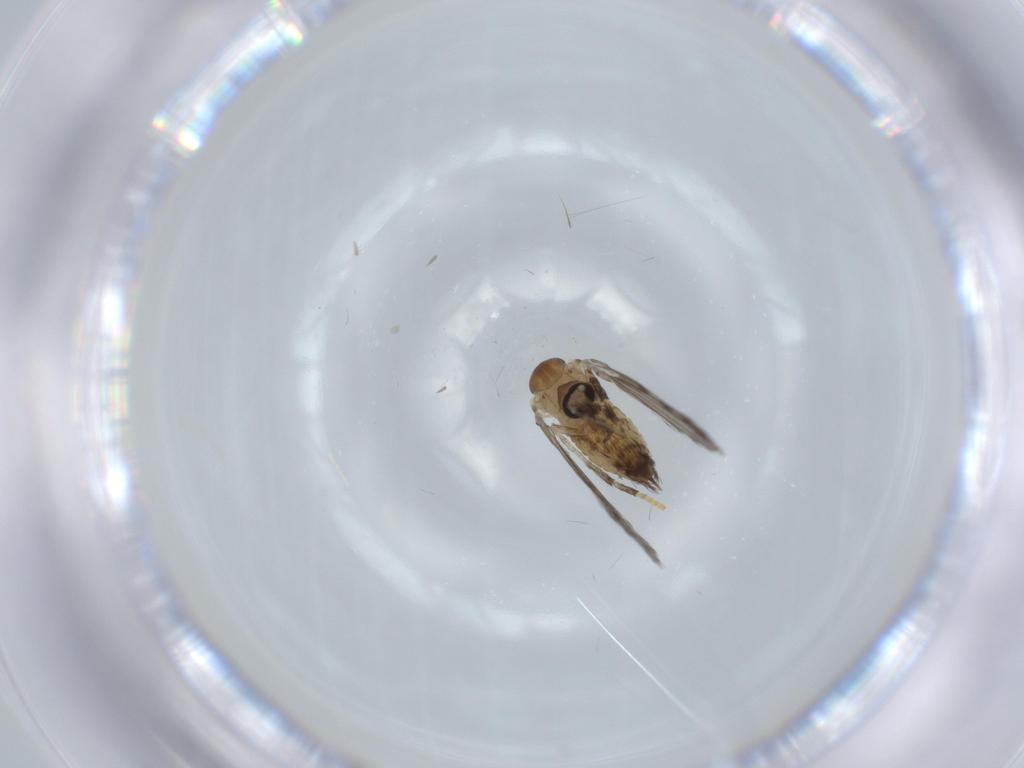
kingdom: Animalia
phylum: Arthropoda
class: Insecta
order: Diptera
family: Psychodidae
